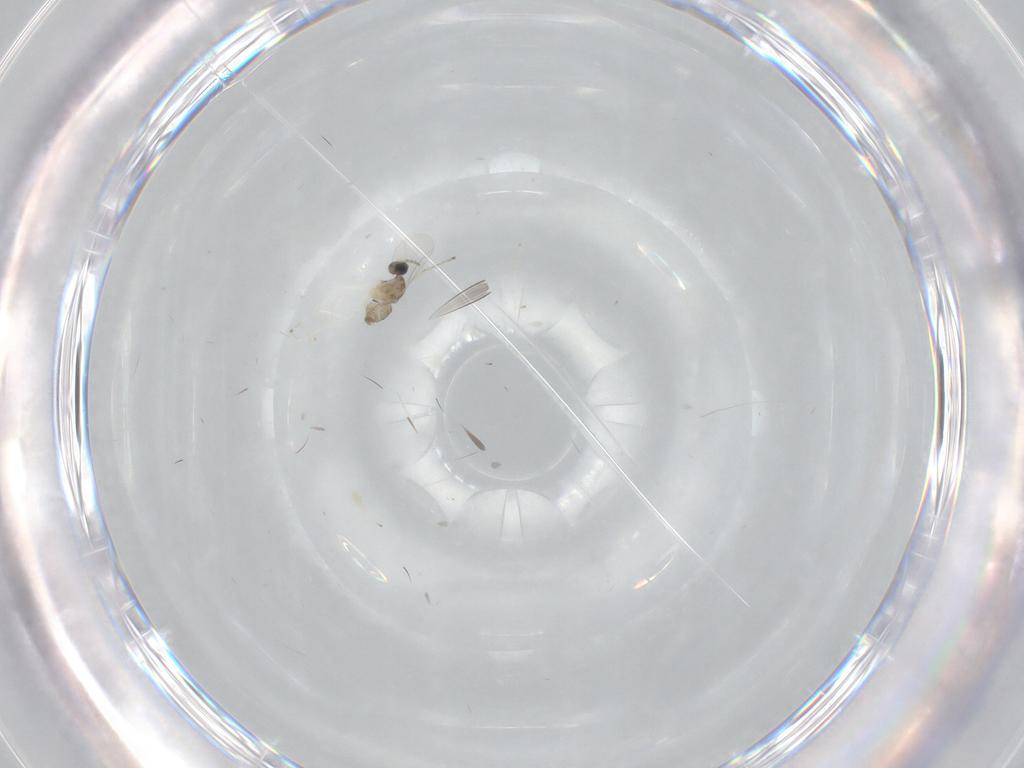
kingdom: Animalia
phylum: Arthropoda
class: Insecta
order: Diptera
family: Cecidomyiidae
